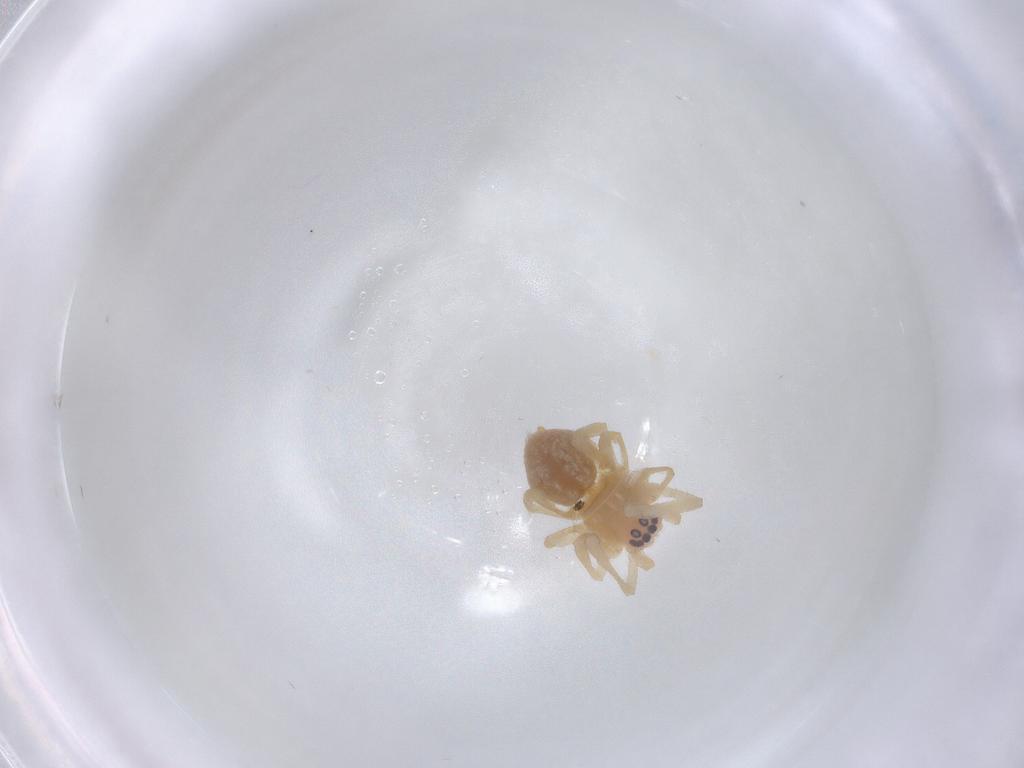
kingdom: Animalia
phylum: Arthropoda
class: Arachnida
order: Araneae
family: Cheiracanthiidae
